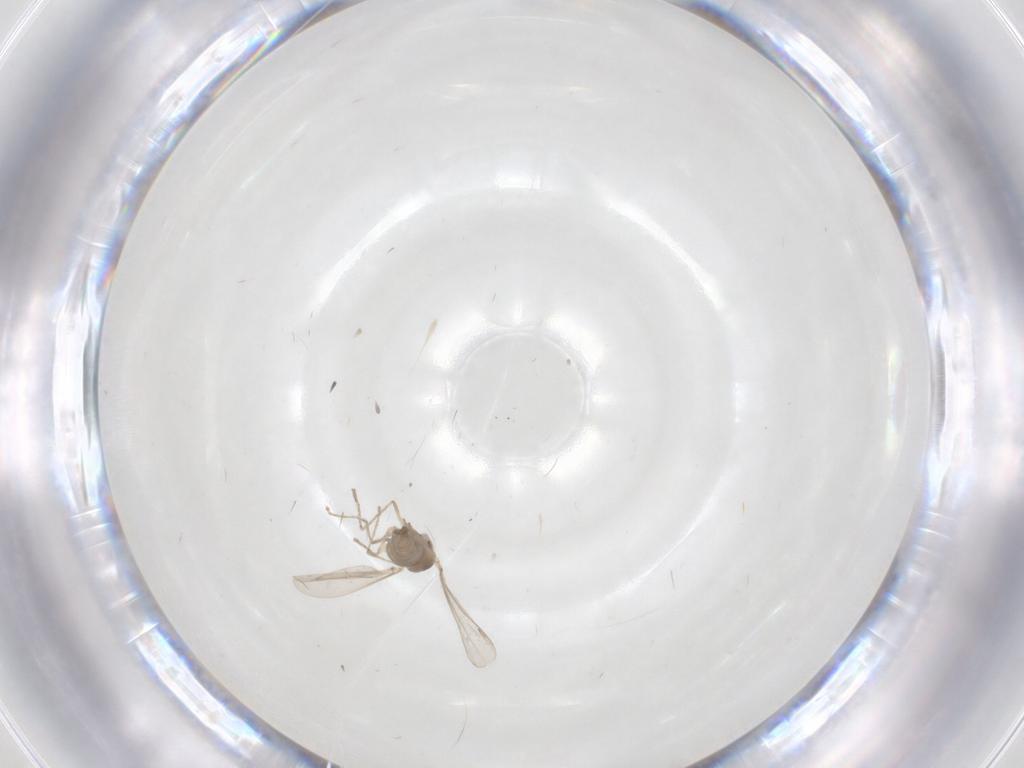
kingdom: Animalia
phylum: Arthropoda
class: Insecta
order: Diptera
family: Cecidomyiidae
